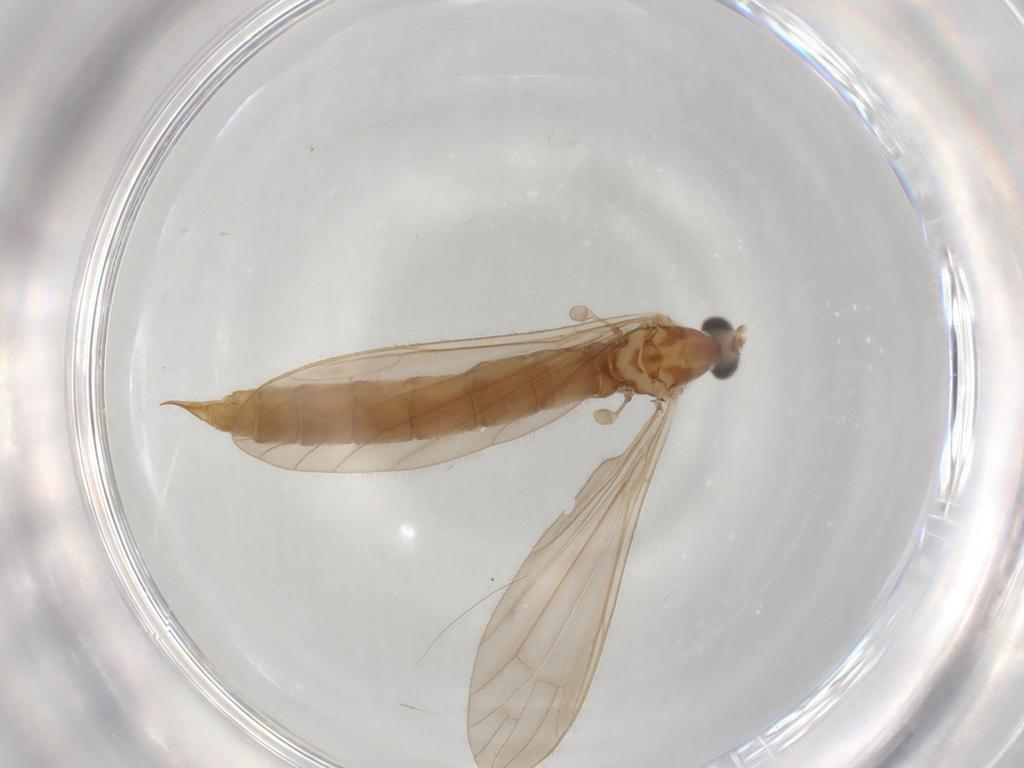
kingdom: Animalia
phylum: Arthropoda
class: Insecta
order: Diptera
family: Limoniidae
